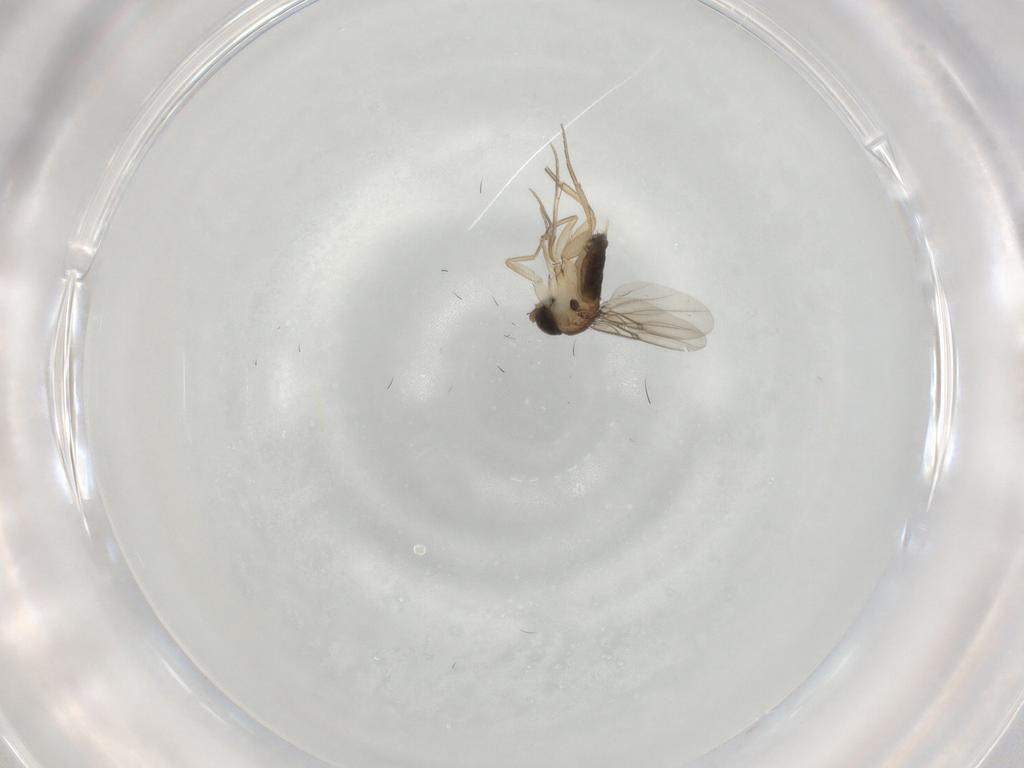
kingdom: Animalia
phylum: Arthropoda
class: Insecta
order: Diptera
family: Phoridae
